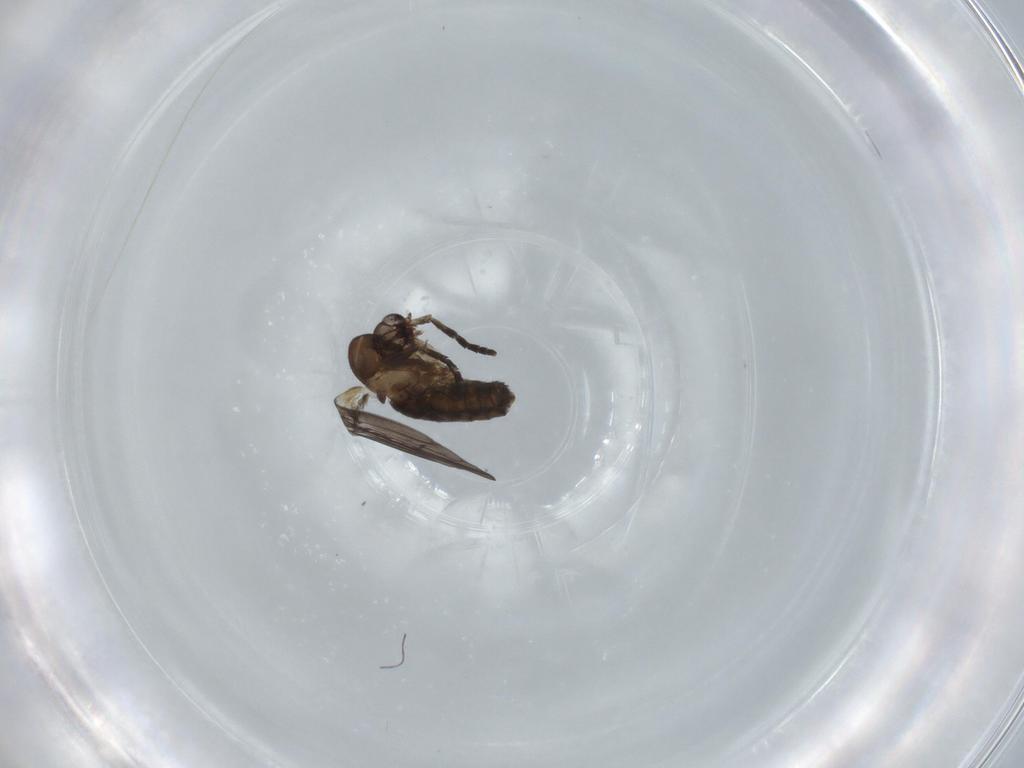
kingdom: Animalia
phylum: Arthropoda
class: Insecta
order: Diptera
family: Psychodidae
